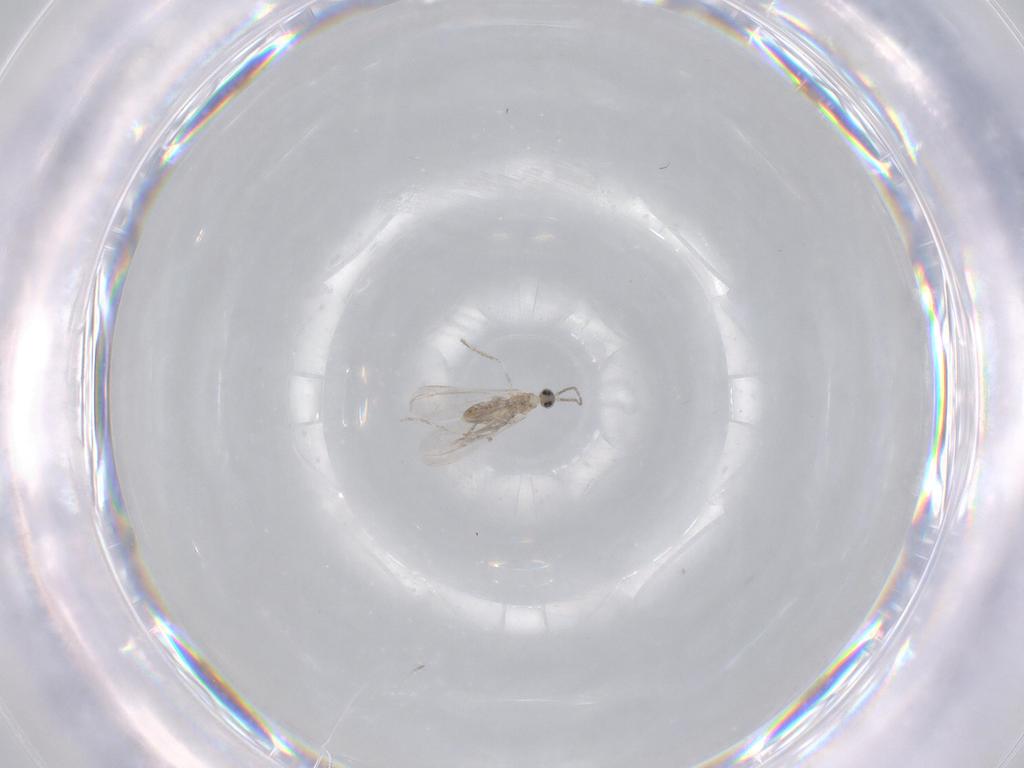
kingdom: Animalia
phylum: Arthropoda
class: Insecta
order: Diptera
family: Cecidomyiidae
